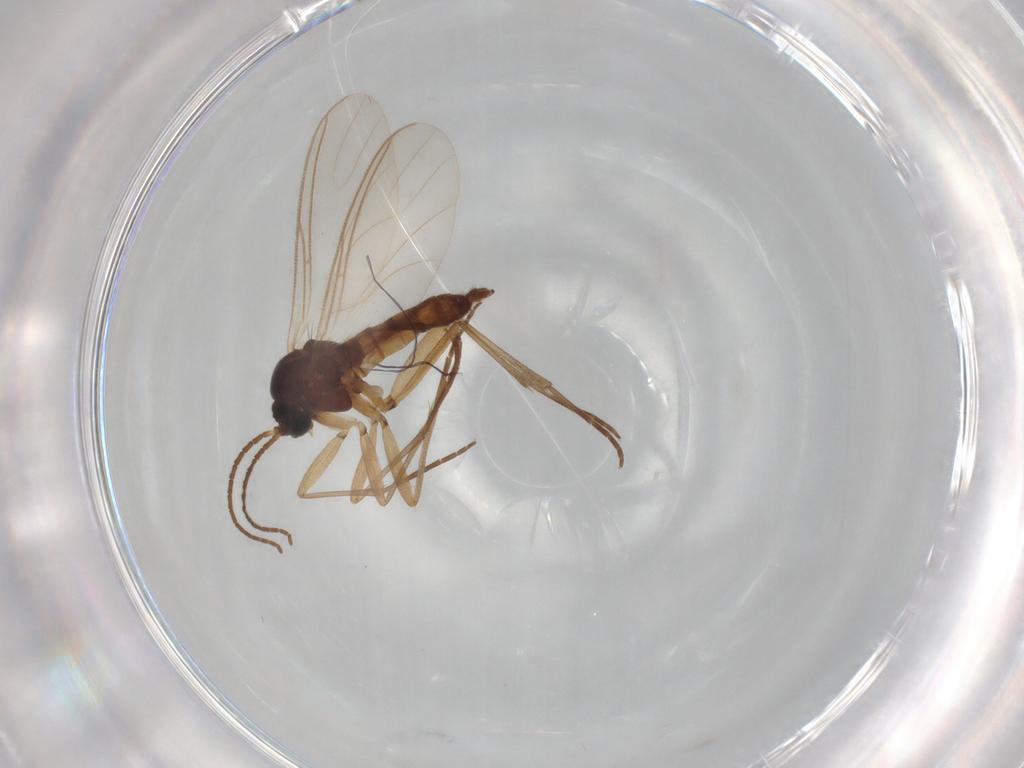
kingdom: Animalia
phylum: Arthropoda
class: Insecta
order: Diptera
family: Sciaridae
